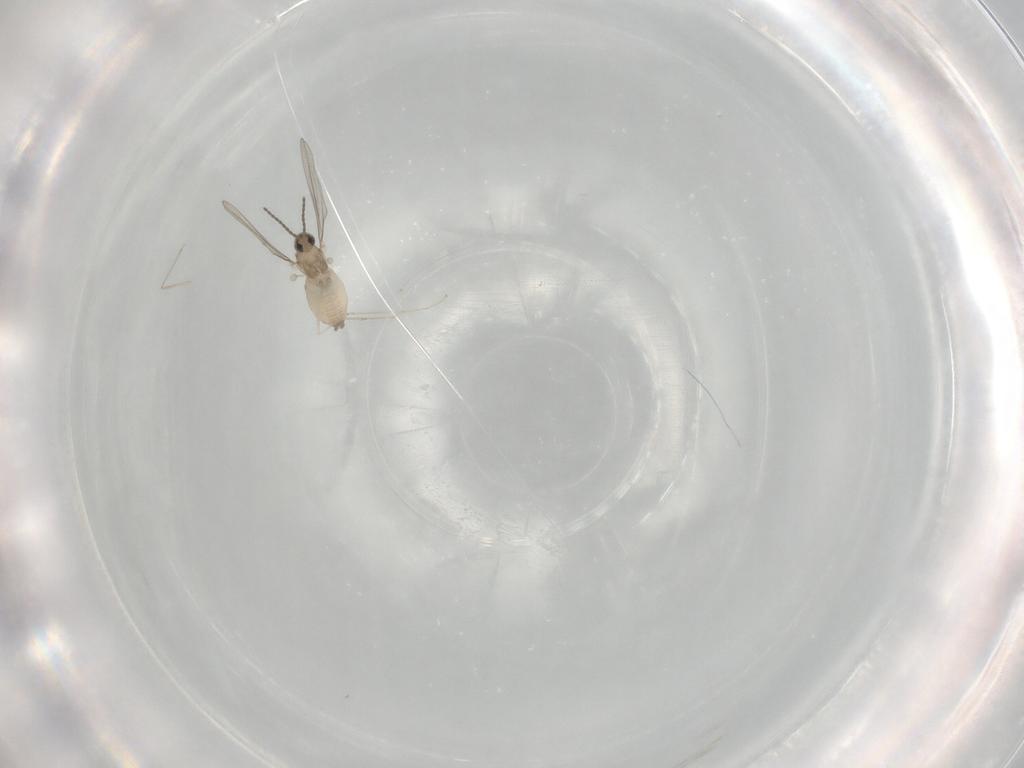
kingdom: Animalia
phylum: Arthropoda
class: Insecta
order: Diptera
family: Cecidomyiidae
